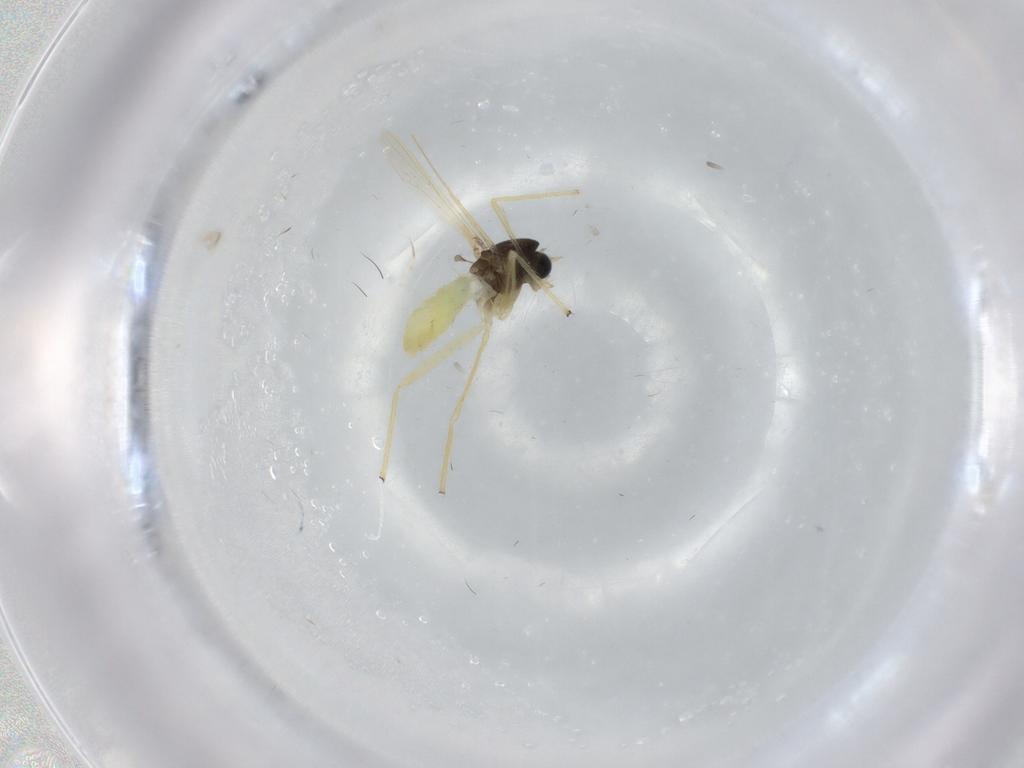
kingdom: Animalia
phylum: Arthropoda
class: Insecta
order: Diptera
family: Chironomidae
